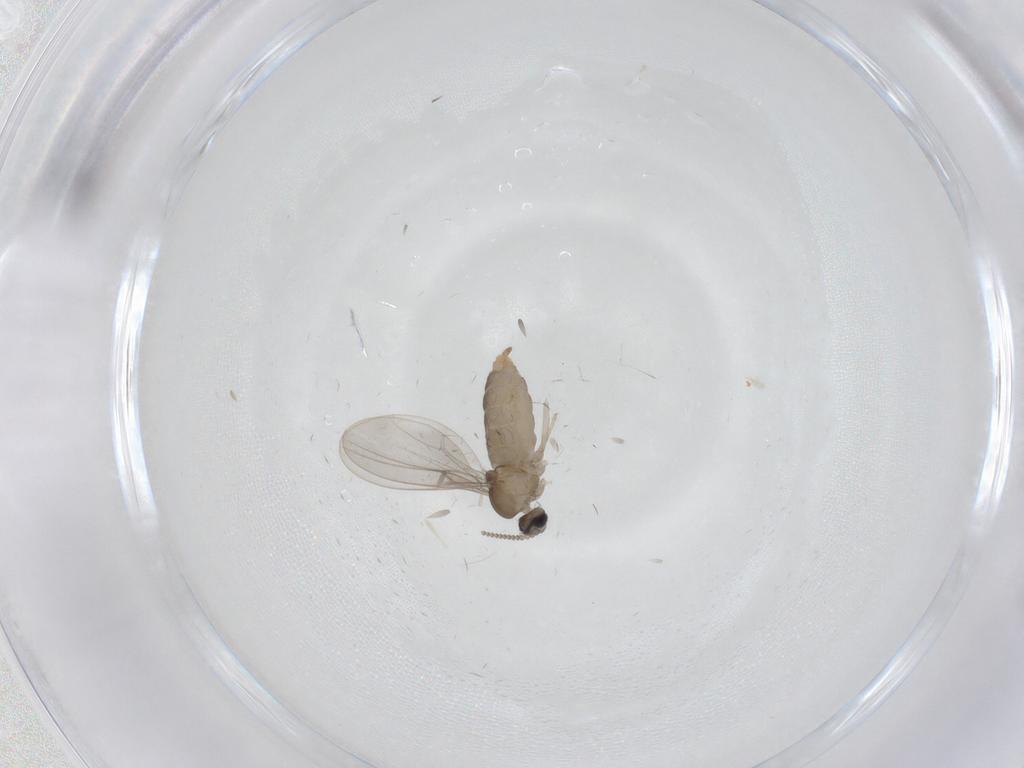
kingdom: Animalia
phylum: Arthropoda
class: Insecta
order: Diptera
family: Cecidomyiidae
